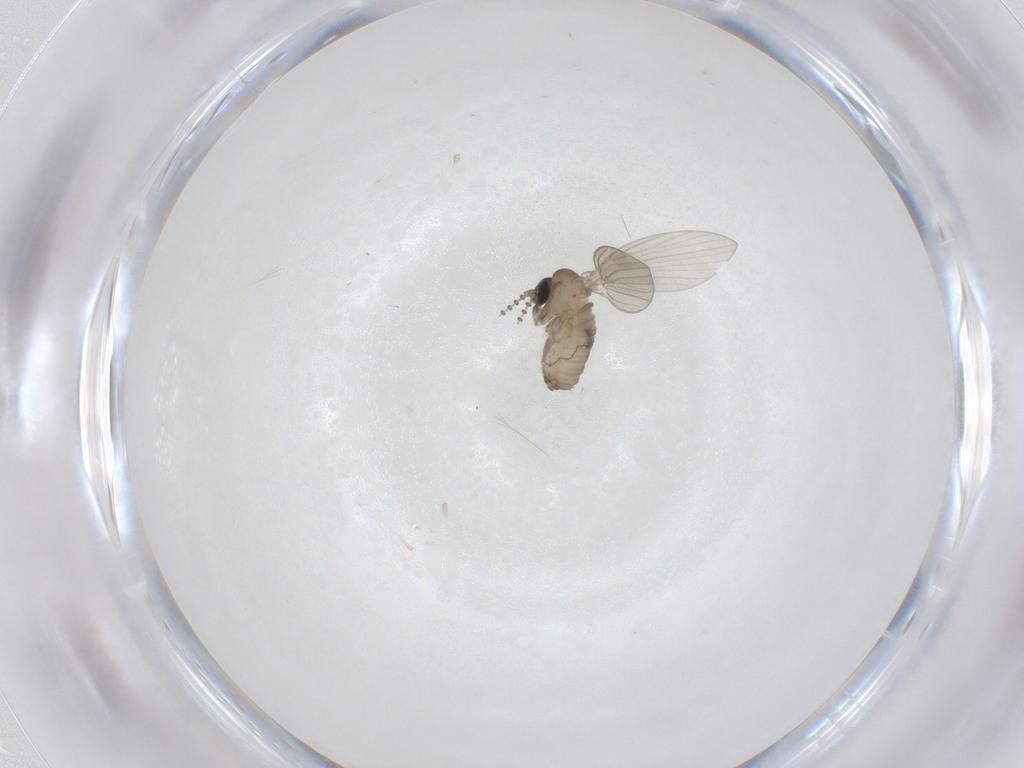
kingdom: Animalia
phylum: Arthropoda
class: Insecta
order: Diptera
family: Psychodidae
